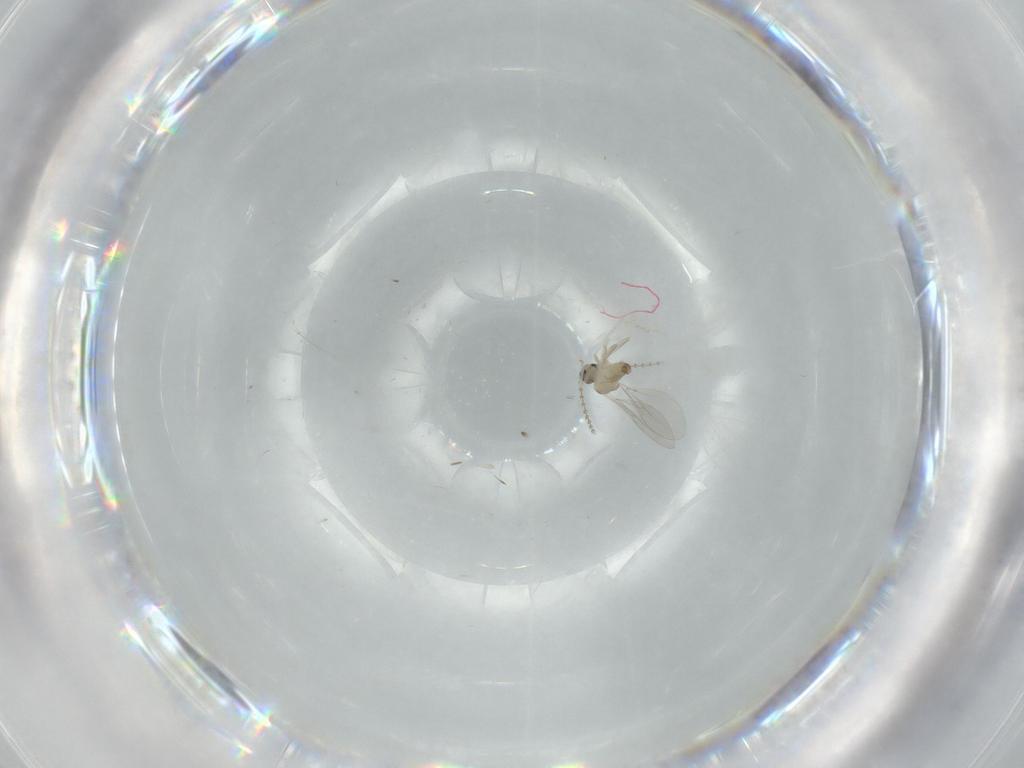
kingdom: Animalia
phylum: Arthropoda
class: Insecta
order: Diptera
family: Cecidomyiidae
